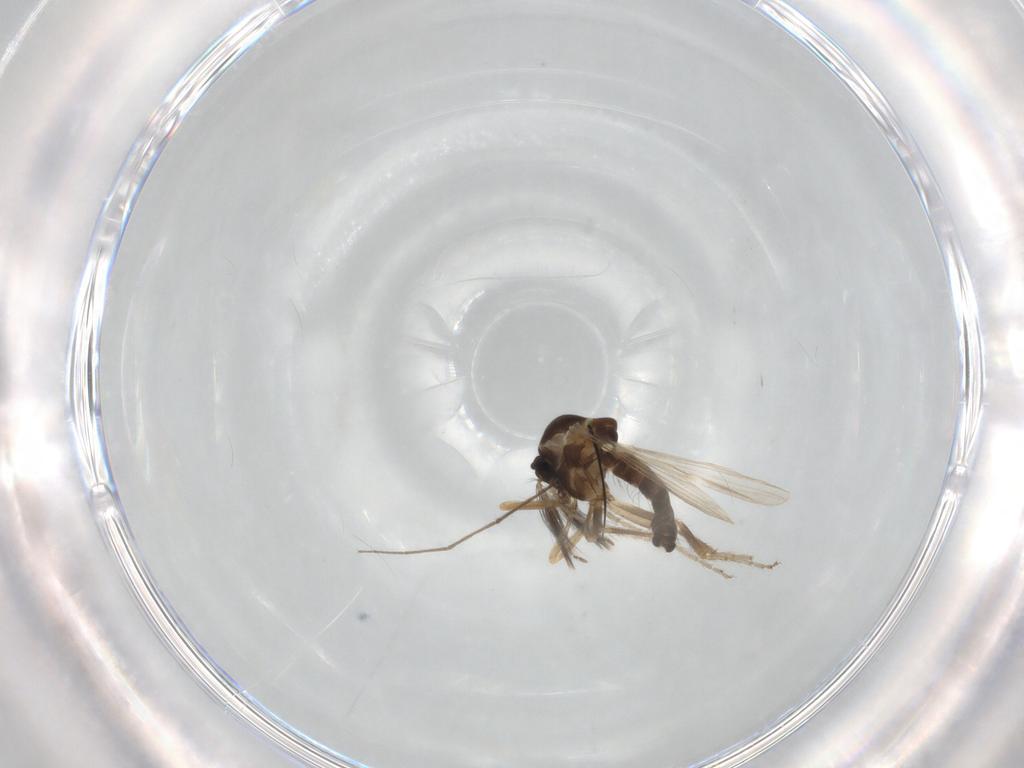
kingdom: Animalia
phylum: Arthropoda
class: Insecta
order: Diptera
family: Ceratopogonidae
